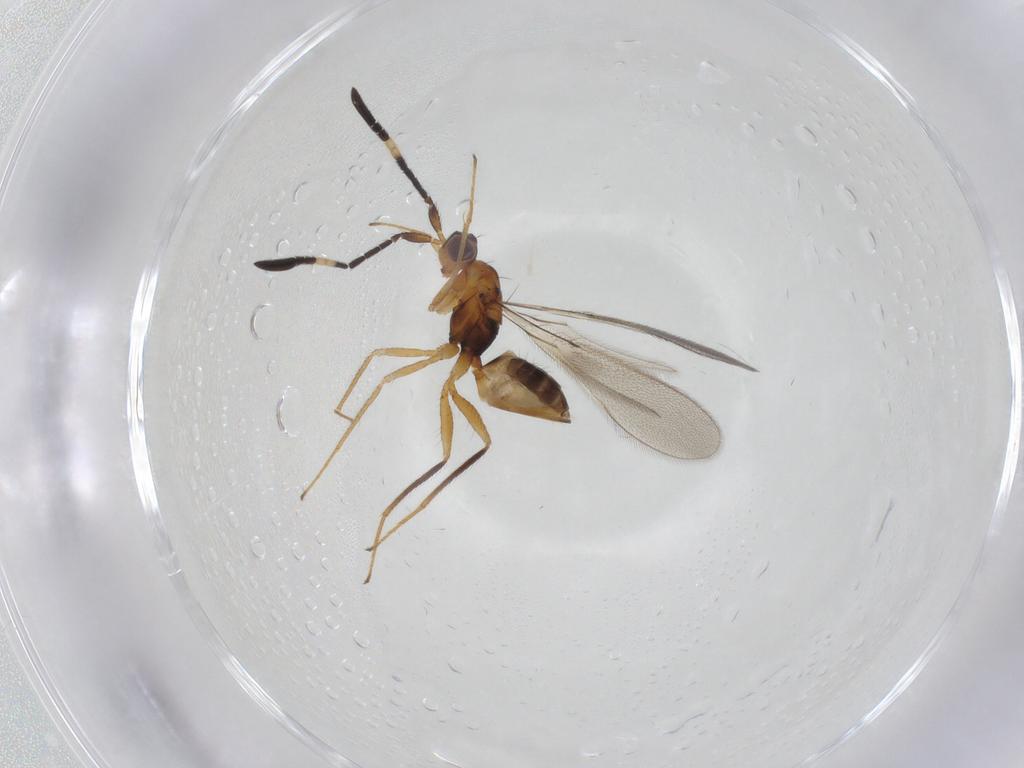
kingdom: Animalia
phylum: Arthropoda
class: Insecta
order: Hymenoptera
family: Mymaridae
